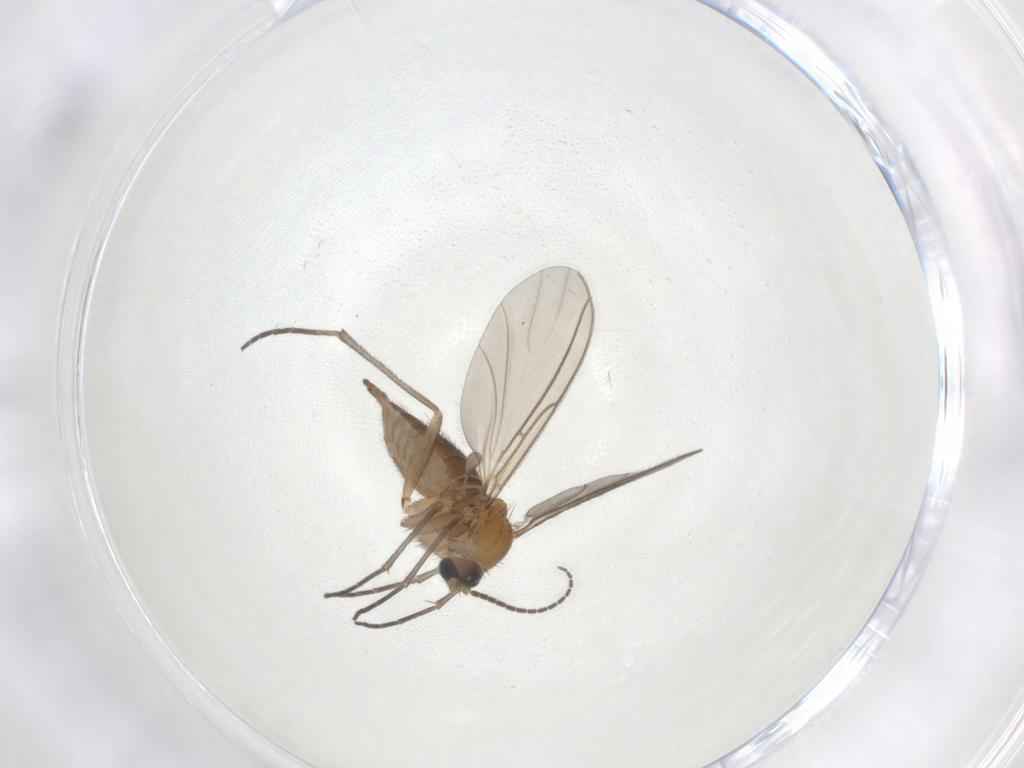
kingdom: Animalia
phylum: Arthropoda
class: Insecta
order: Diptera
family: Sciaridae
